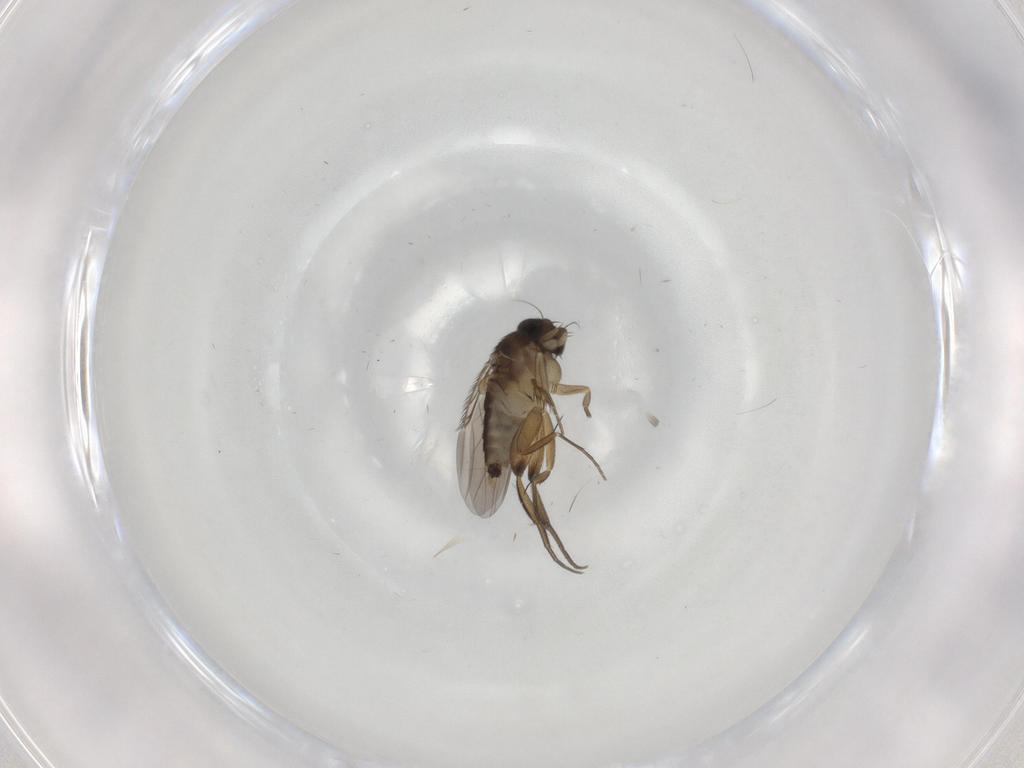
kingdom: Animalia
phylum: Arthropoda
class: Insecta
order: Diptera
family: Phoridae
